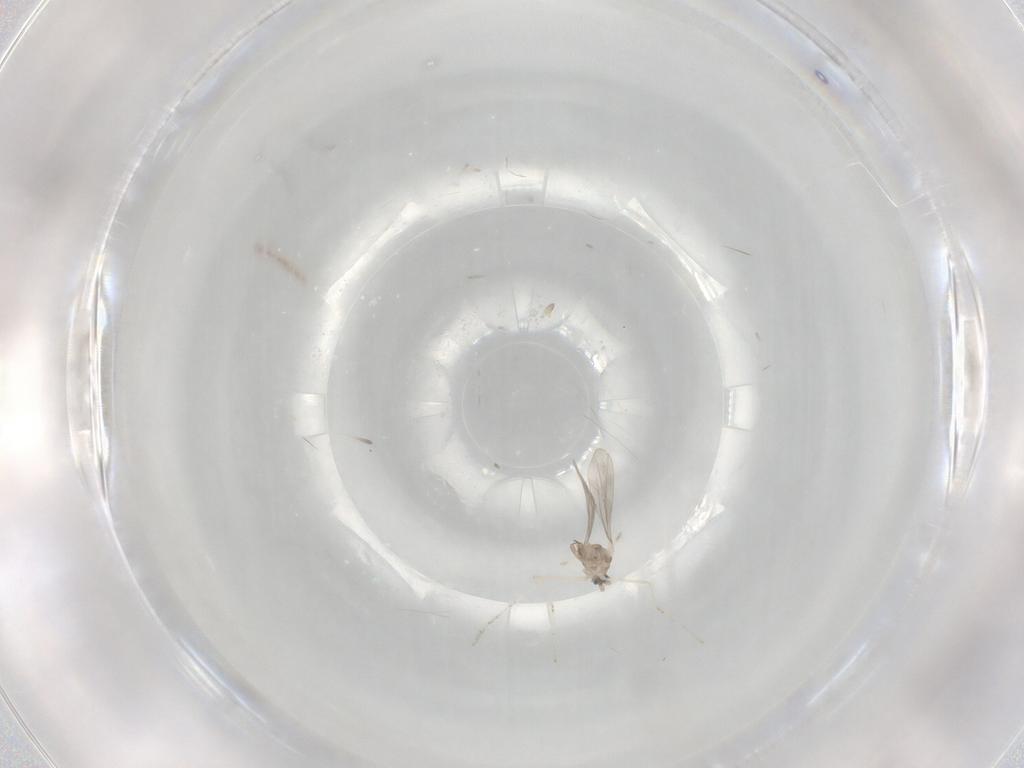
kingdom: Animalia
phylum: Arthropoda
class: Insecta
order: Diptera
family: Cecidomyiidae
